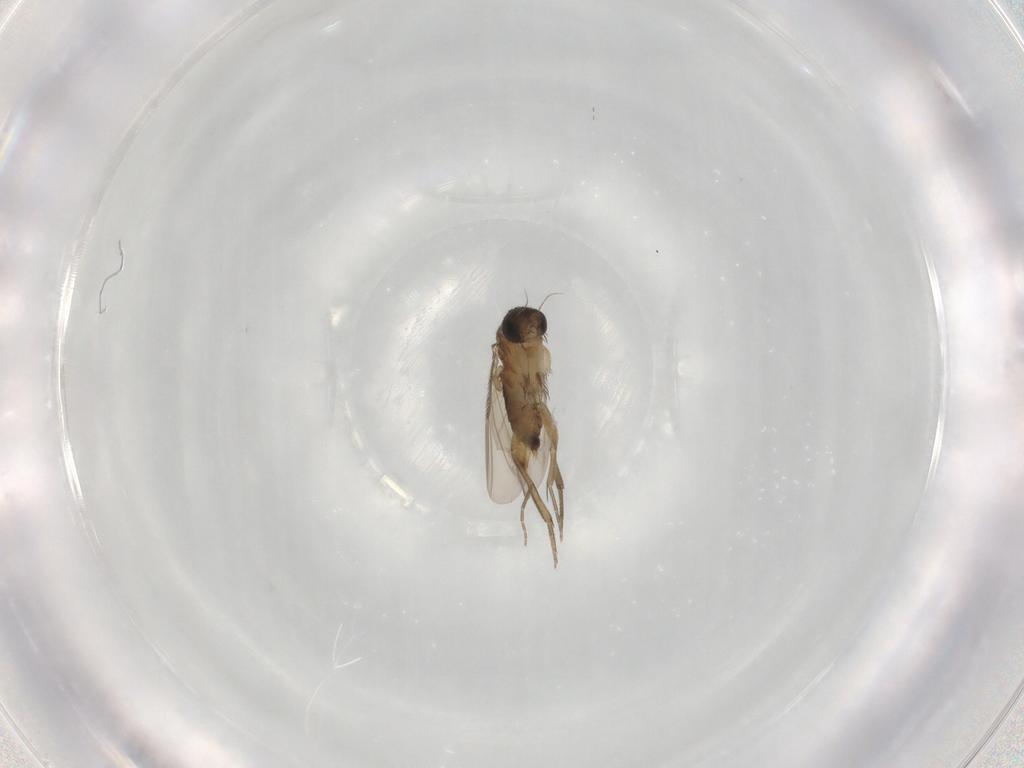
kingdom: Animalia
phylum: Arthropoda
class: Insecta
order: Diptera
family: Phoridae
